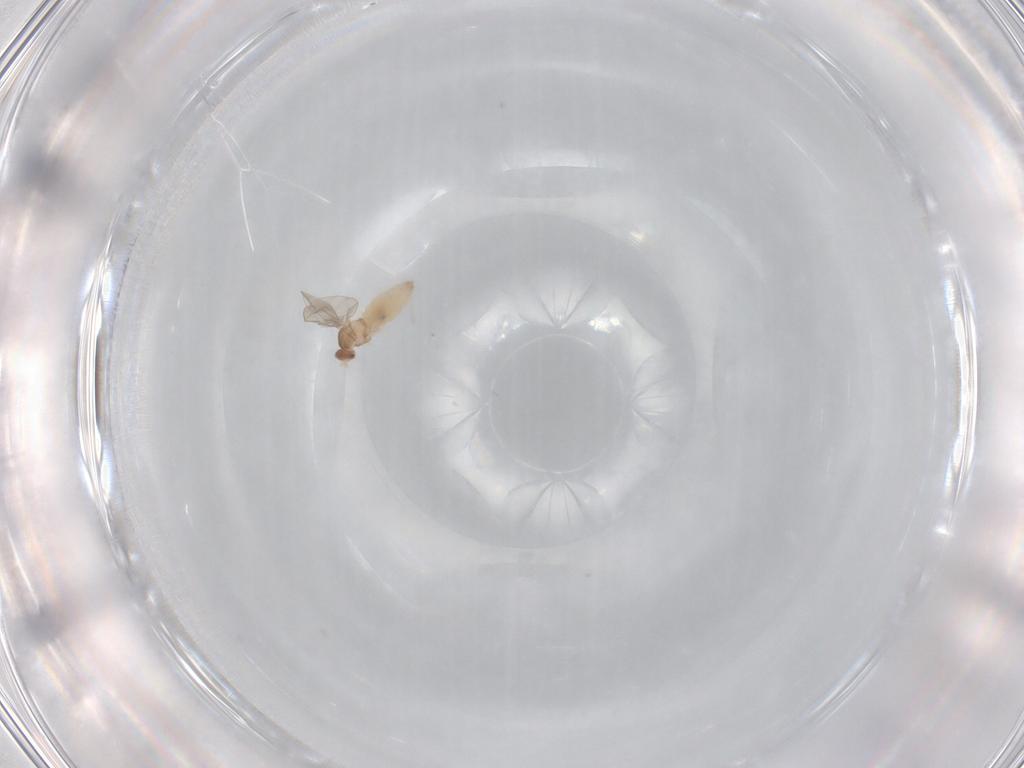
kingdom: Animalia
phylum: Arthropoda
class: Insecta
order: Diptera
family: Cecidomyiidae
